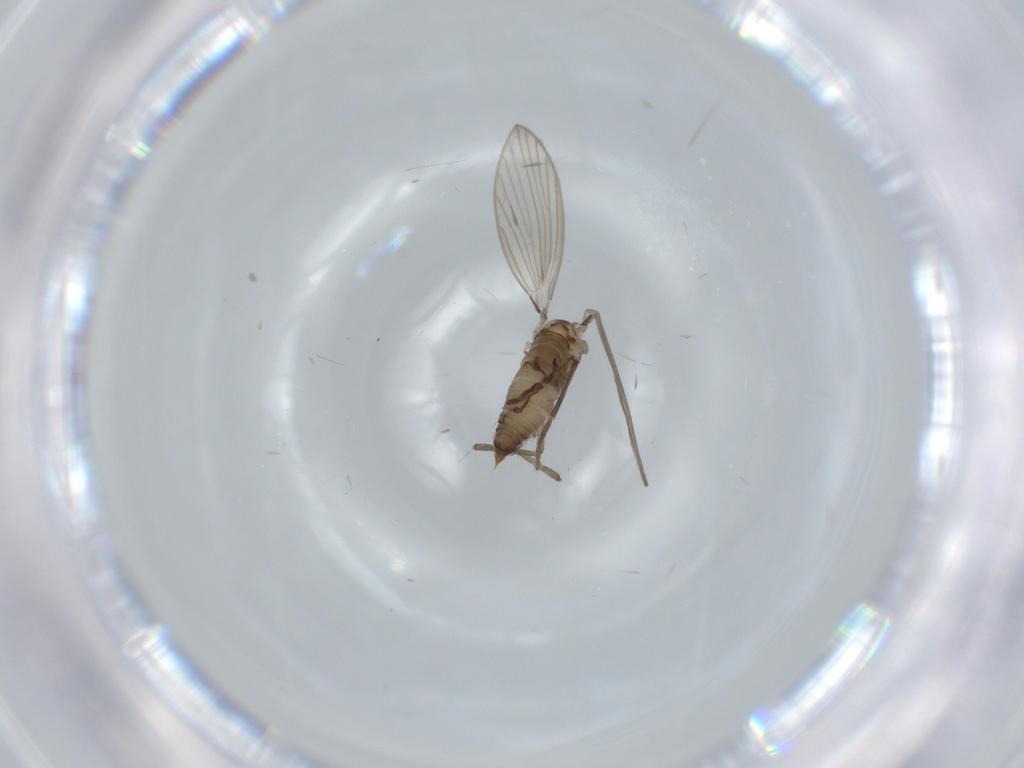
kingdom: Animalia
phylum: Arthropoda
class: Insecta
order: Diptera
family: Psychodidae
